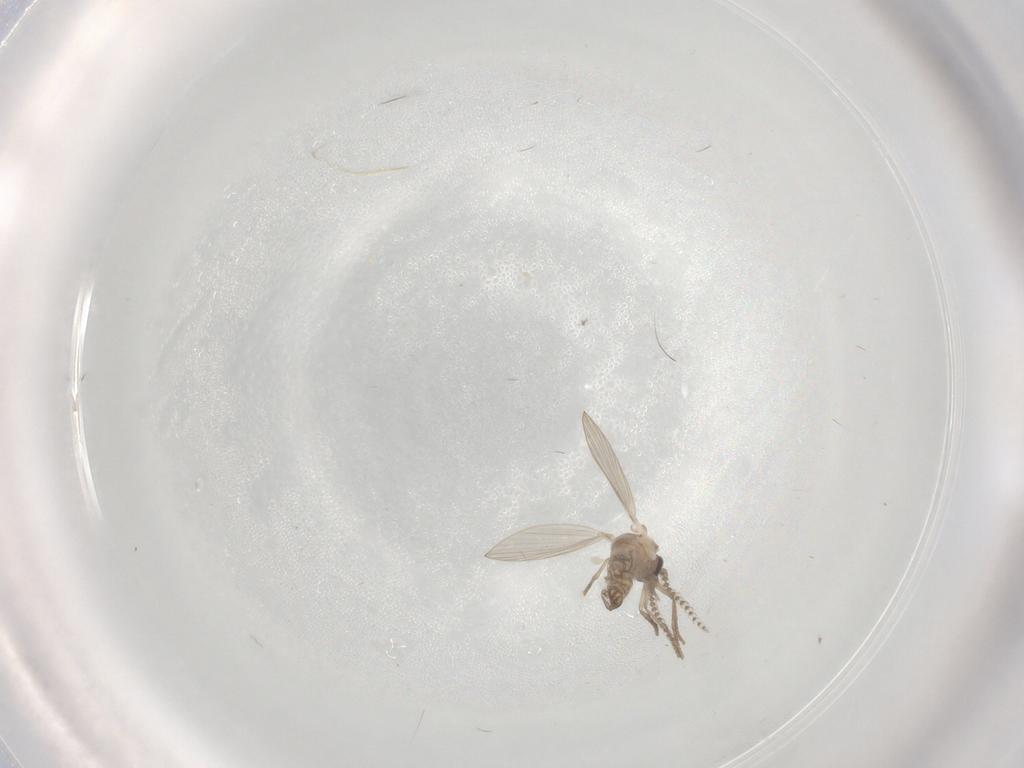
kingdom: Animalia
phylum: Arthropoda
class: Insecta
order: Diptera
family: Psychodidae
